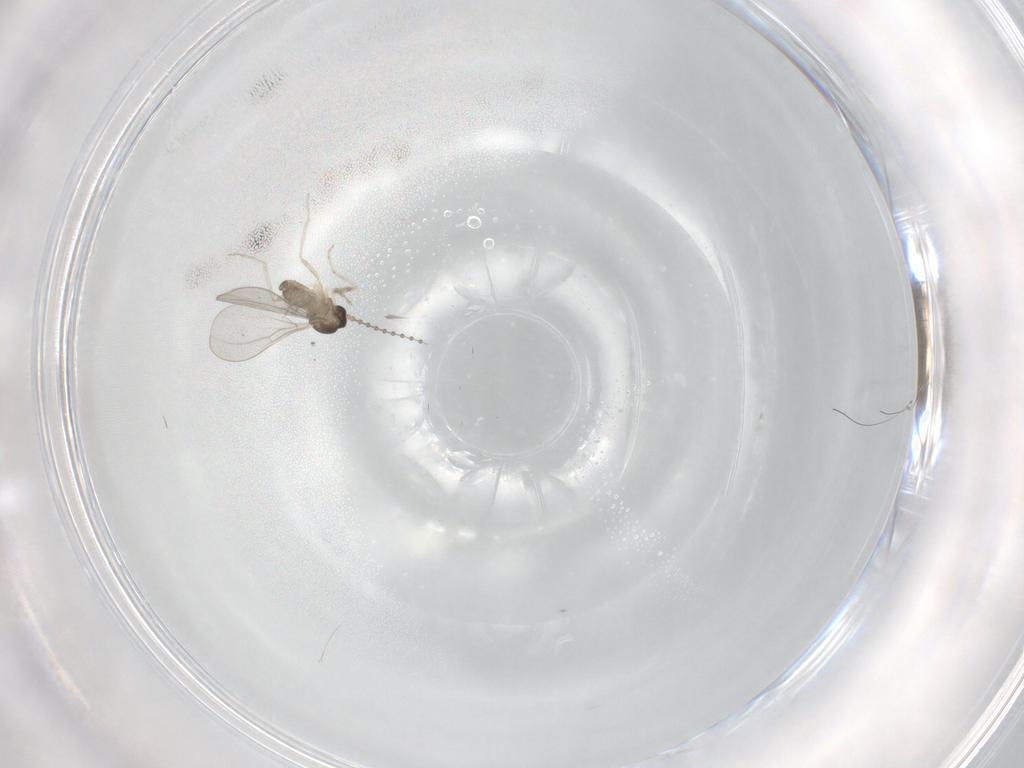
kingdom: Animalia
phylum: Arthropoda
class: Insecta
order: Diptera
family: Cecidomyiidae
